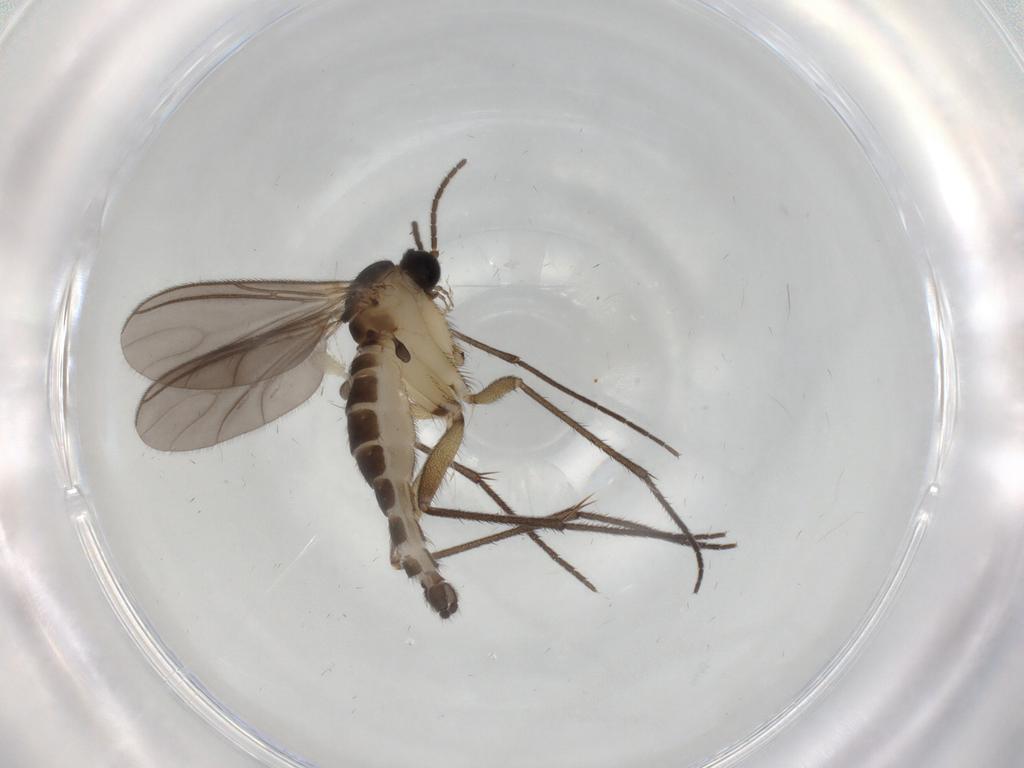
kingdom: Animalia
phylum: Arthropoda
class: Insecta
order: Diptera
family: Sciaridae
